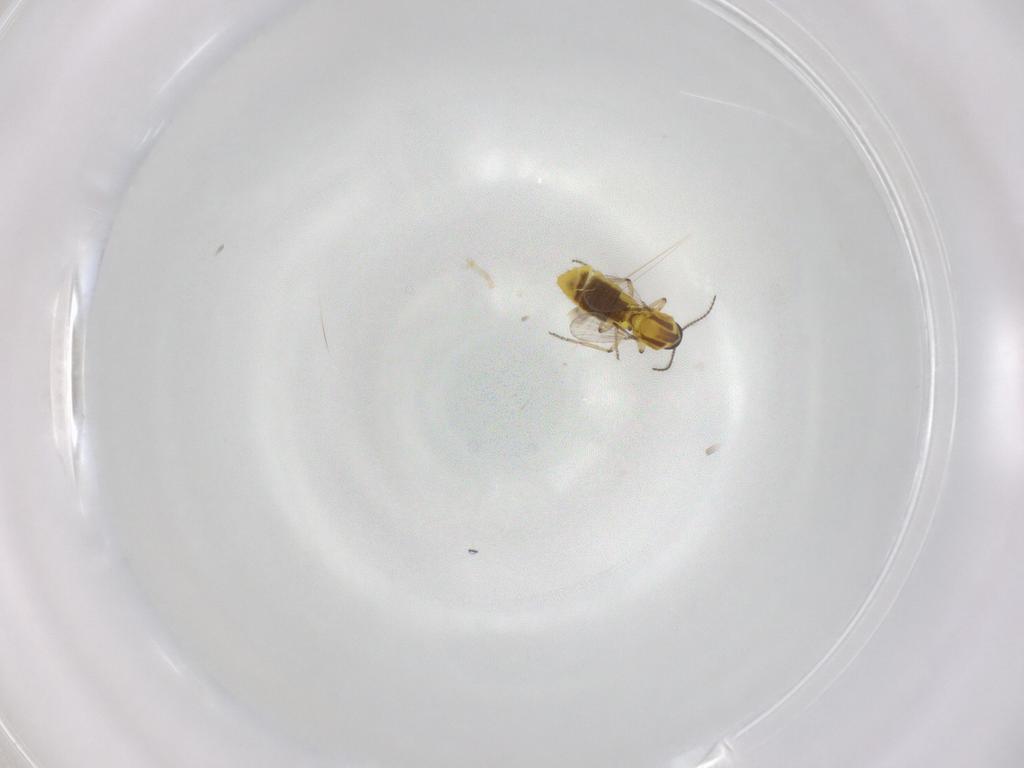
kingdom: Animalia
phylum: Arthropoda
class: Insecta
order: Diptera
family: Ceratopogonidae
